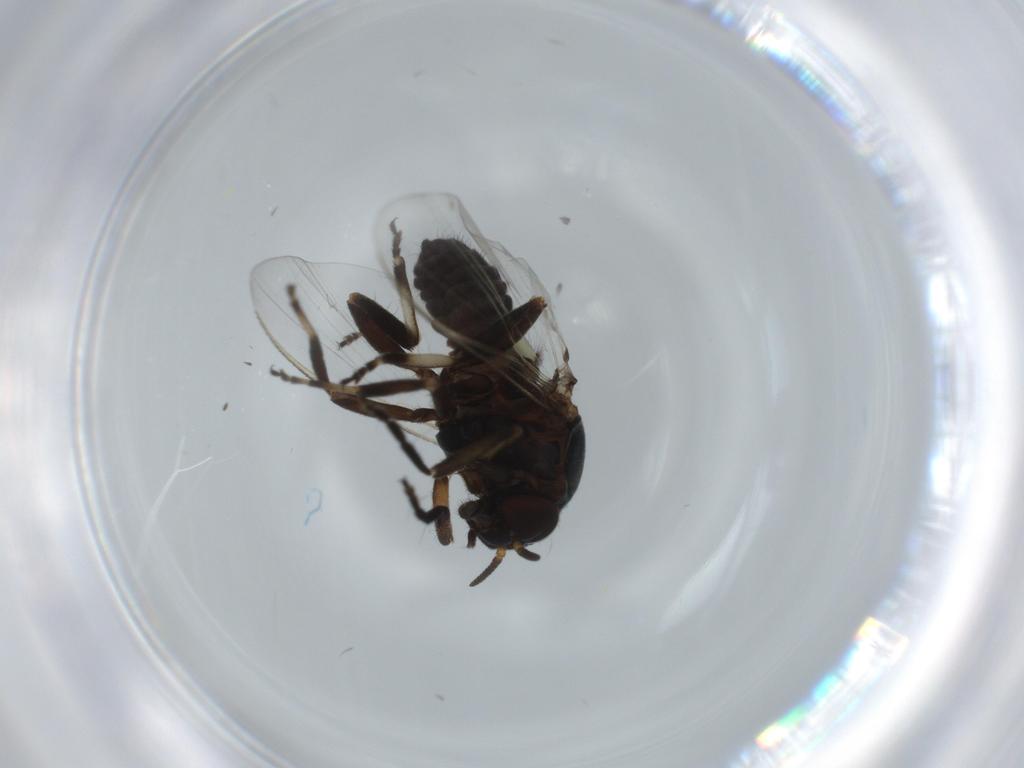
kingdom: Animalia
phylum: Arthropoda
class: Insecta
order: Diptera
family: Cecidomyiidae
